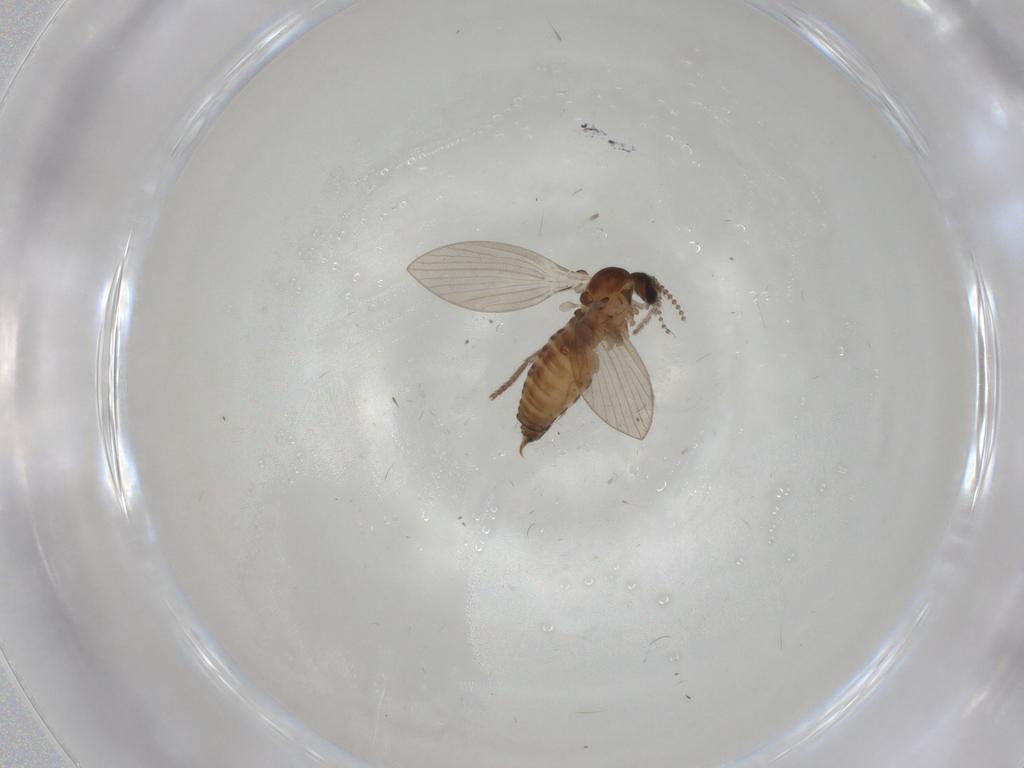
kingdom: Animalia
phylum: Arthropoda
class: Insecta
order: Diptera
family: Psychodidae
